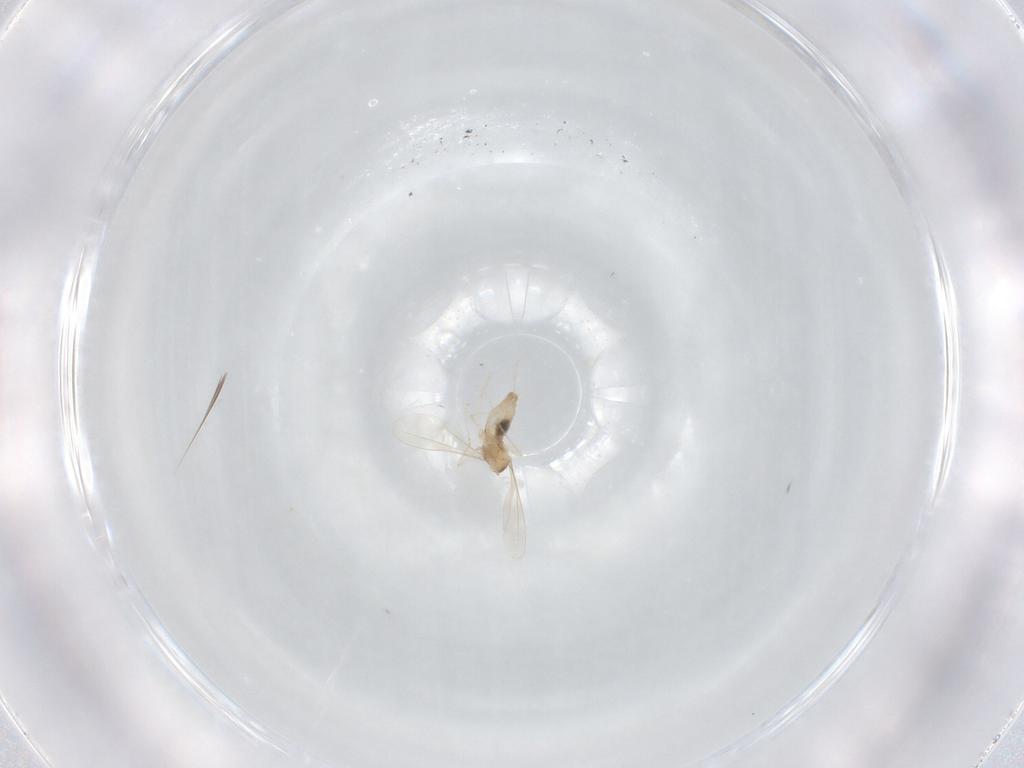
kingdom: Animalia
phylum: Arthropoda
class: Insecta
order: Diptera
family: Cecidomyiidae
